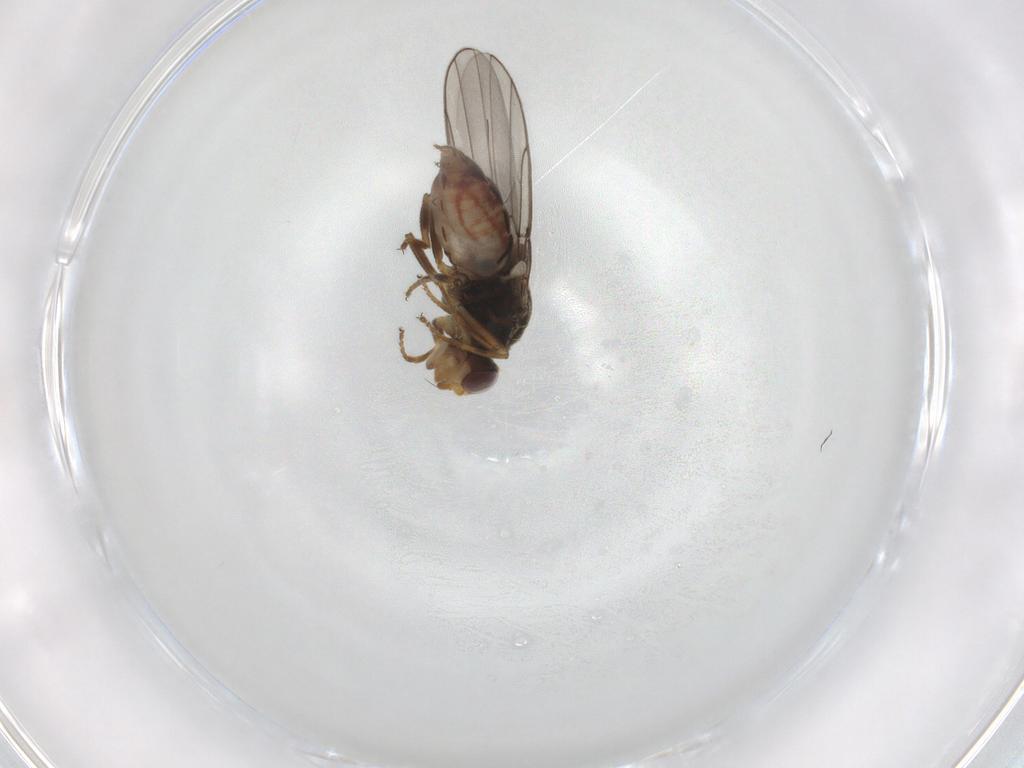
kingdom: Animalia
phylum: Arthropoda
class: Insecta
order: Diptera
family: Chloropidae
